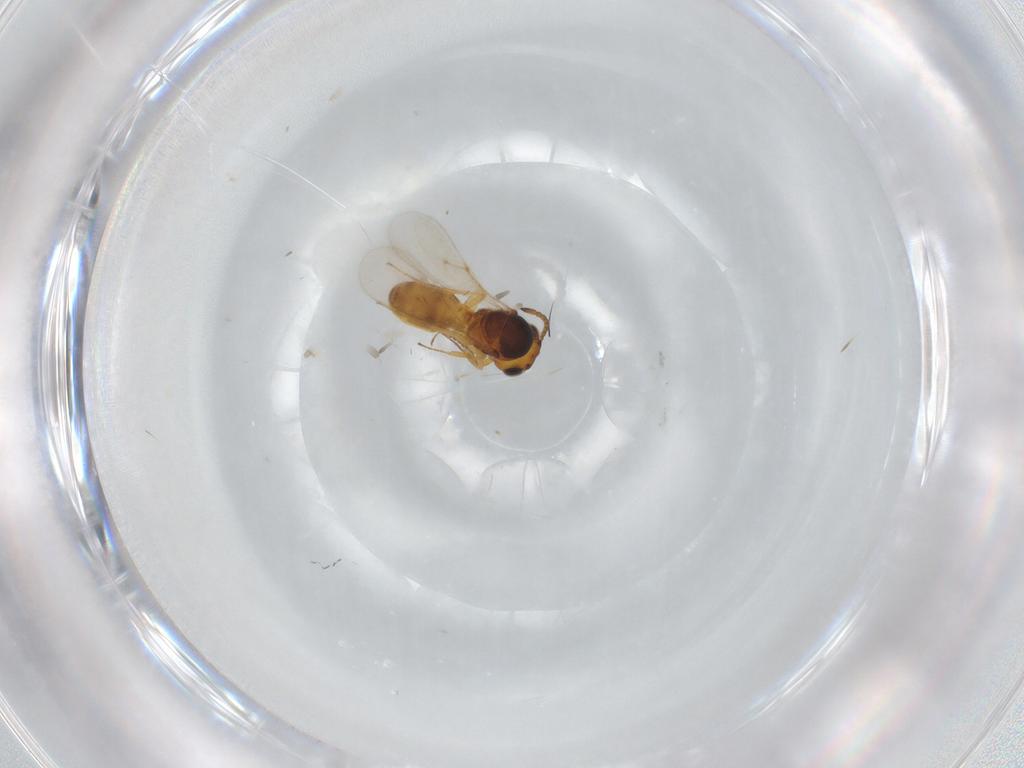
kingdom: Animalia
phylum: Arthropoda
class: Insecta
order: Hymenoptera
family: Scelionidae
